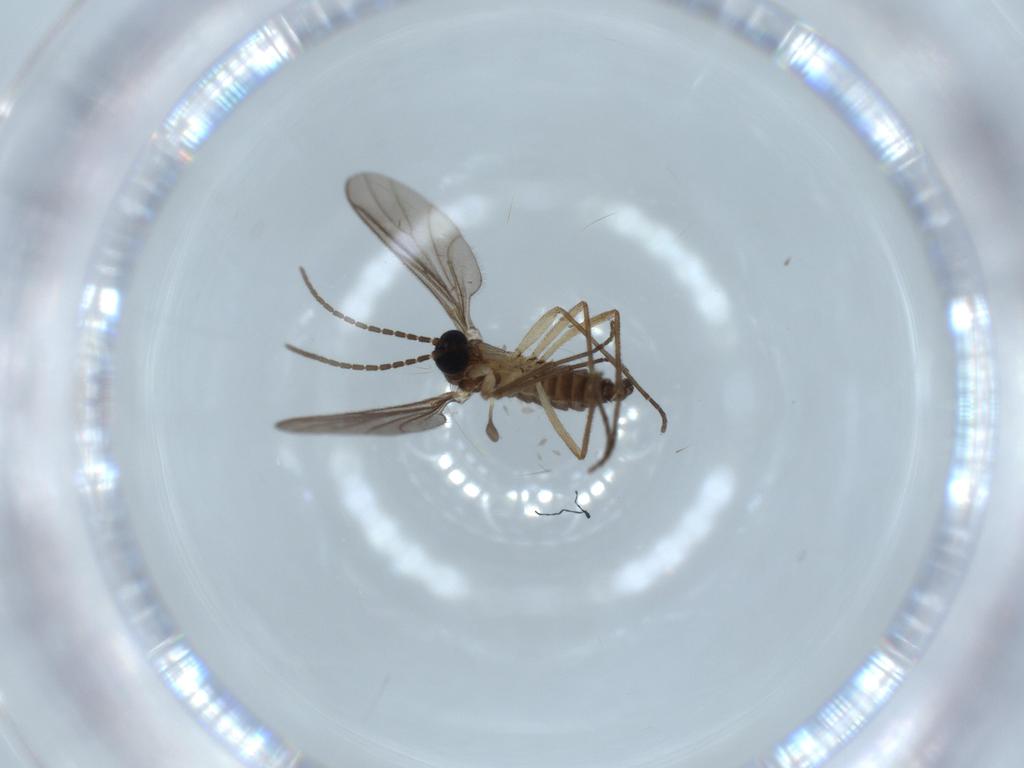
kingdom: Animalia
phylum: Arthropoda
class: Insecta
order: Diptera
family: Sciaridae
